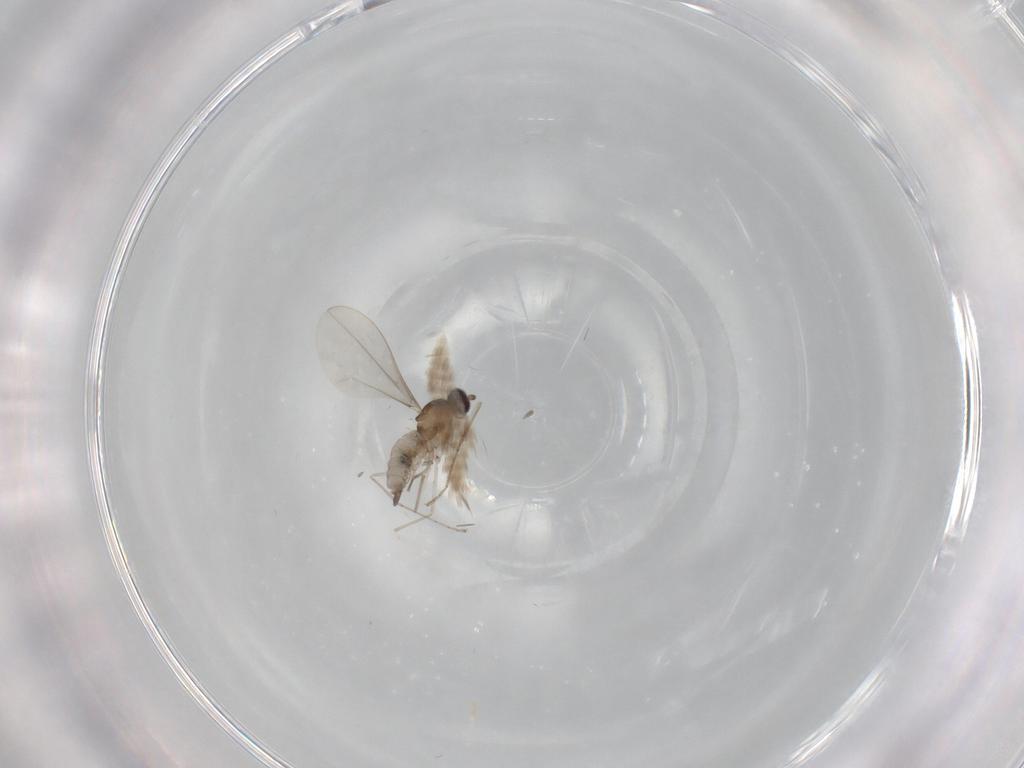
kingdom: Animalia
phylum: Arthropoda
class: Insecta
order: Diptera
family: Cecidomyiidae
